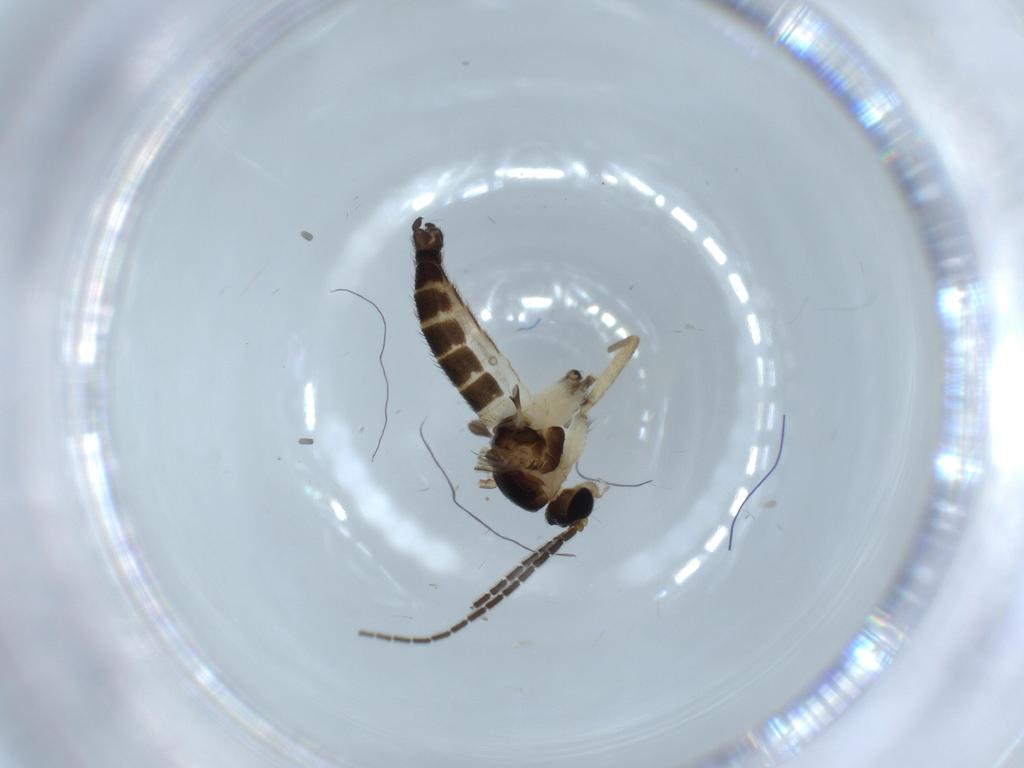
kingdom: Animalia
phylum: Arthropoda
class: Insecta
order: Diptera
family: Sciaridae
